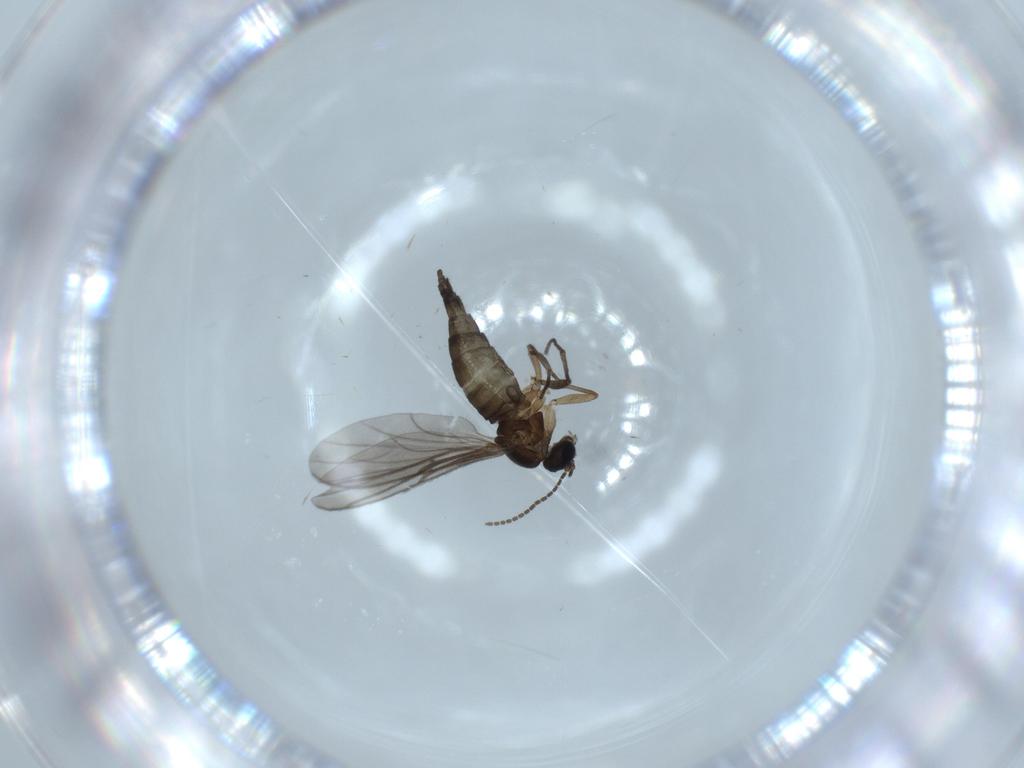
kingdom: Animalia
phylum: Arthropoda
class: Insecta
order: Diptera
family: Sciaridae
